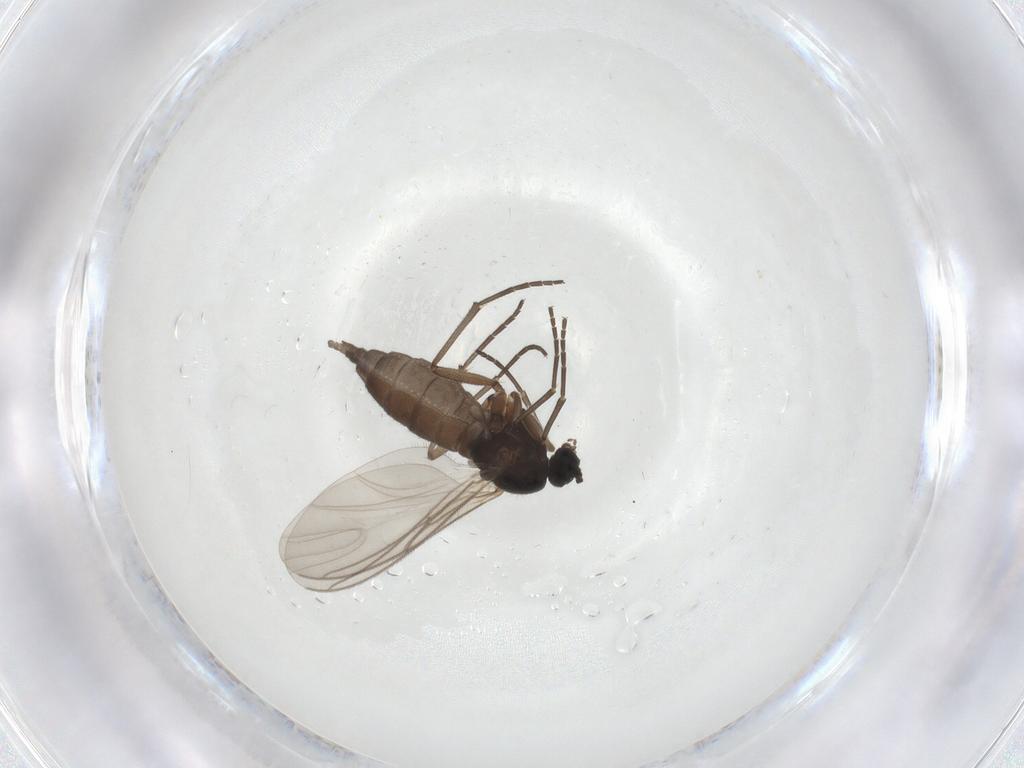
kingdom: Animalia
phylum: Arthropoda
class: Insecta
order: Diptera
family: Sciaridae
